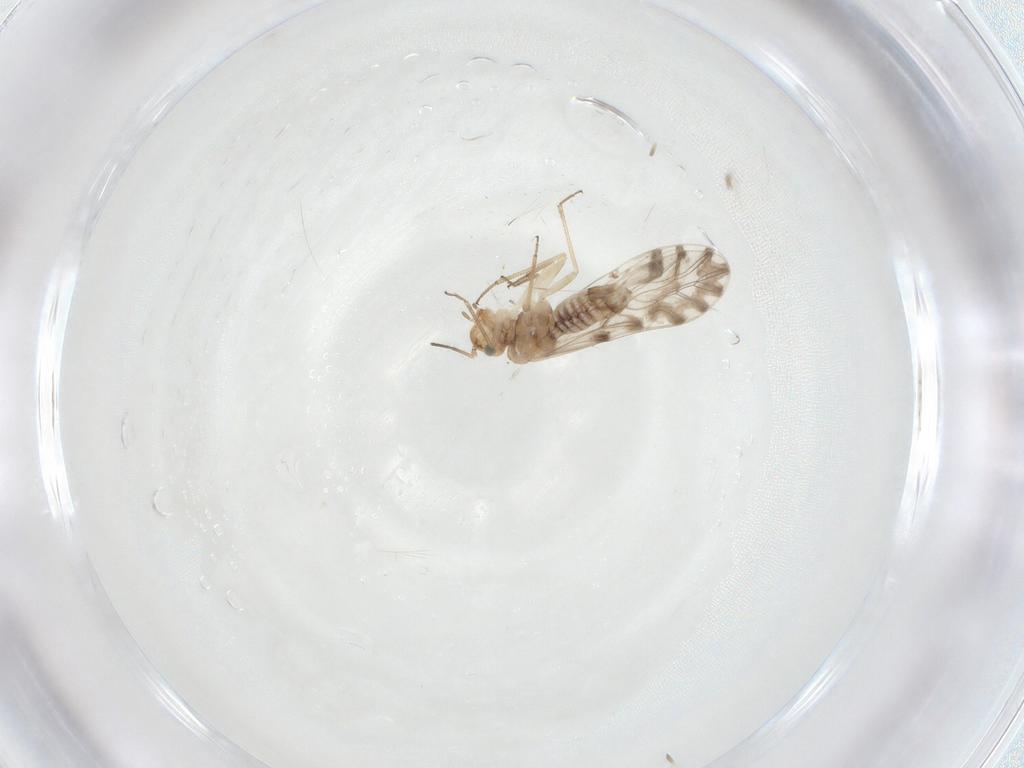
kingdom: Animalia
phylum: Arthropoda
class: Insecta
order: Psocodea
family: Lachesillidae
